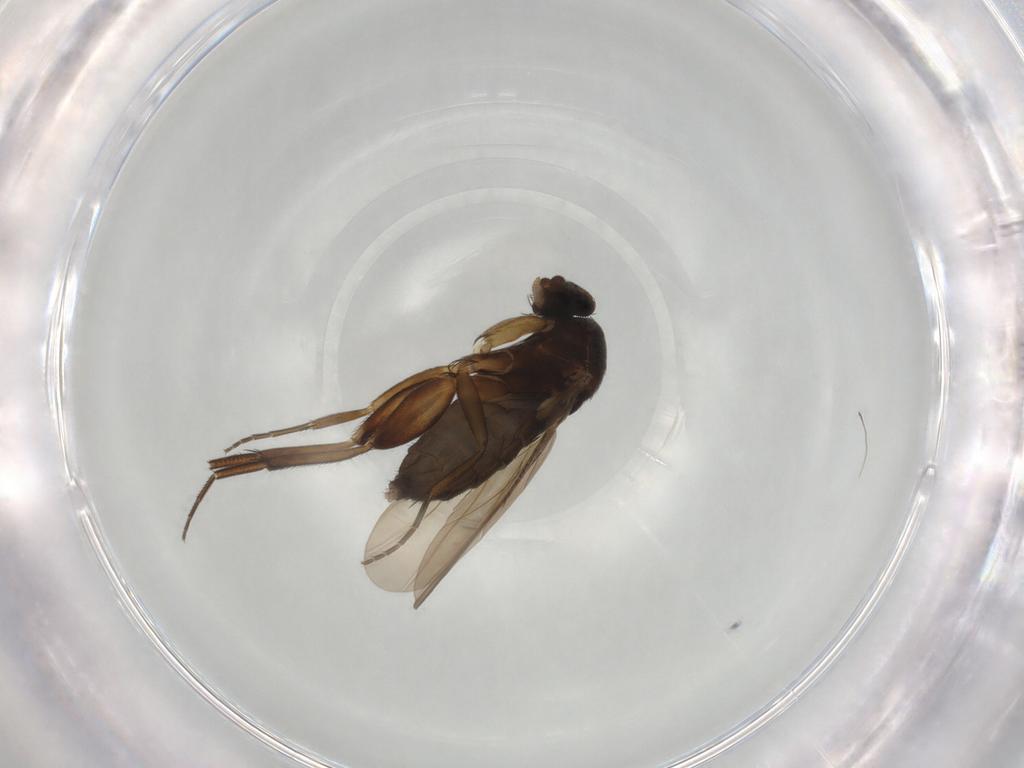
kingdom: Animalia
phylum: Arthropoda
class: Insecta
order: Diptera
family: Phoridae
